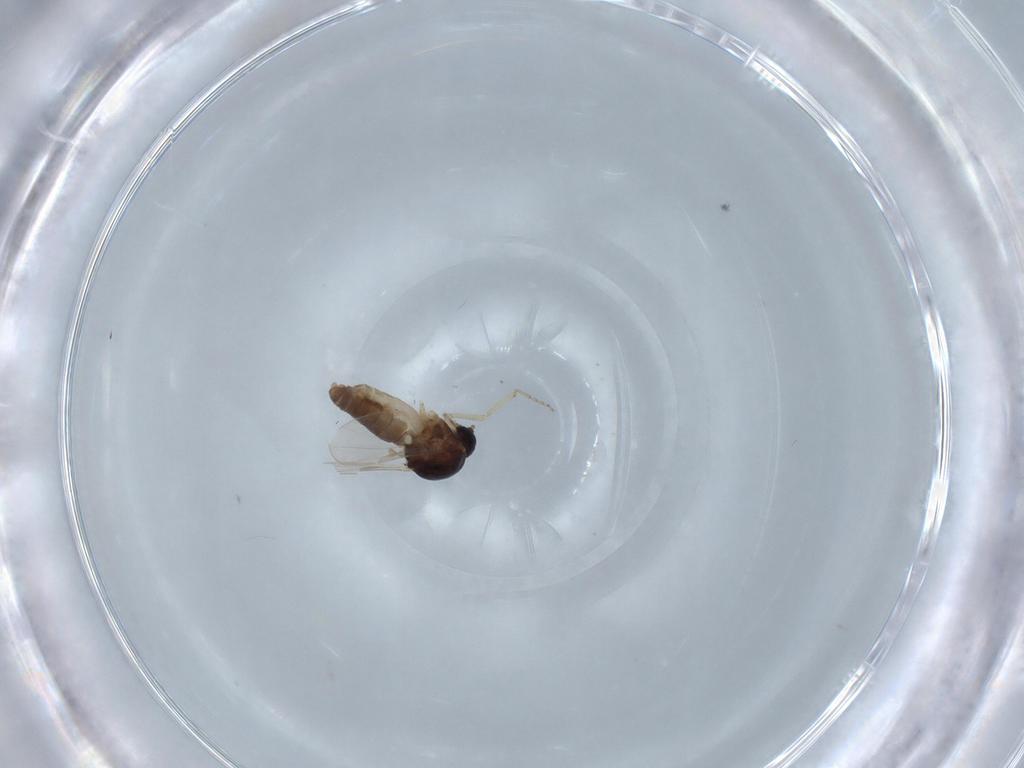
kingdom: Animalia
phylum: Arthropoda
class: Insecta
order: Diptera
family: Ceratopogonidae
